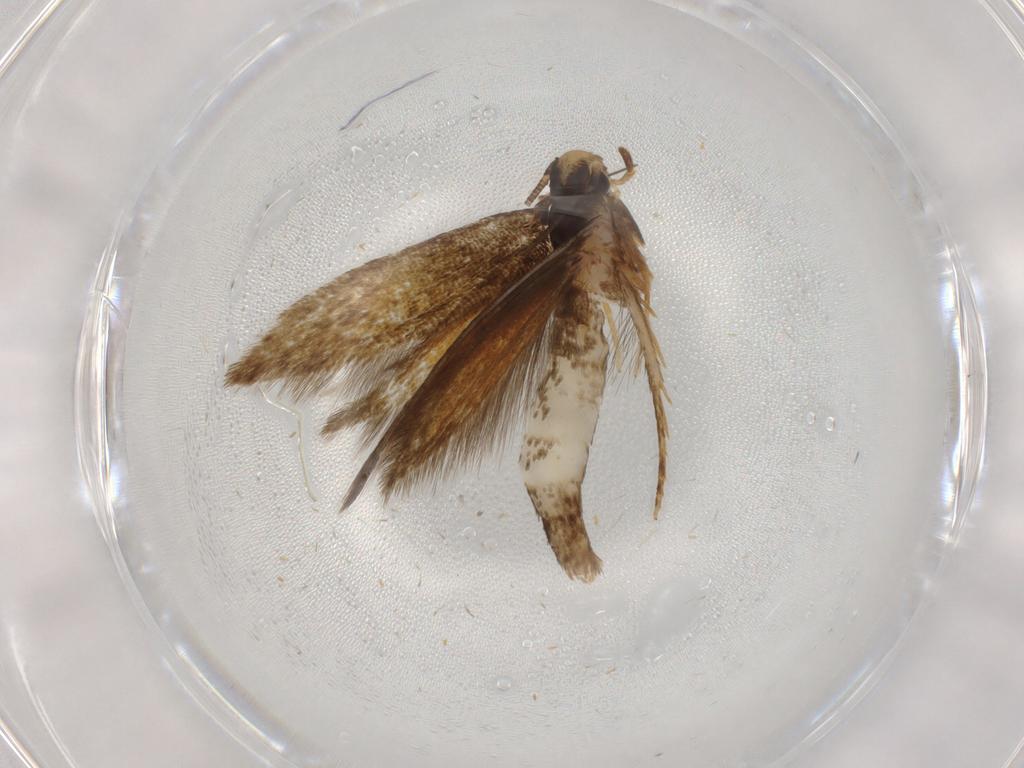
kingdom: Animalia
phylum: Arthropoda
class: Insecta
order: Lepidoptera
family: Tineidae
